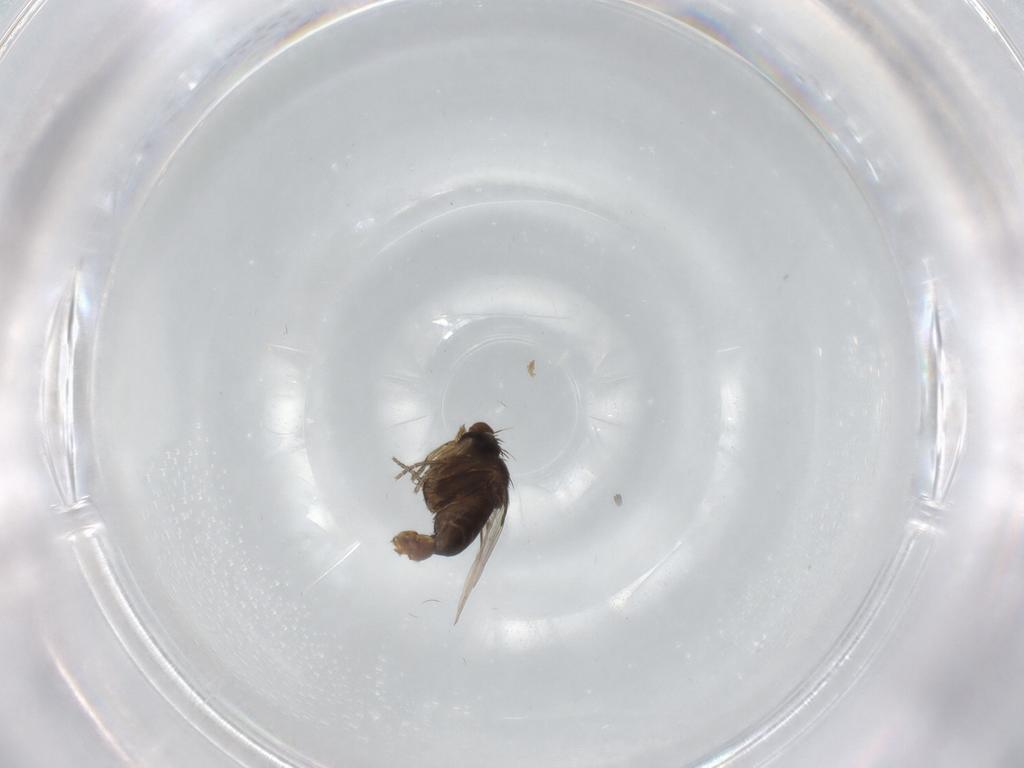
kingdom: Animalia
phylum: Arthropoda
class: Insecta
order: Diptera
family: Phoridae
